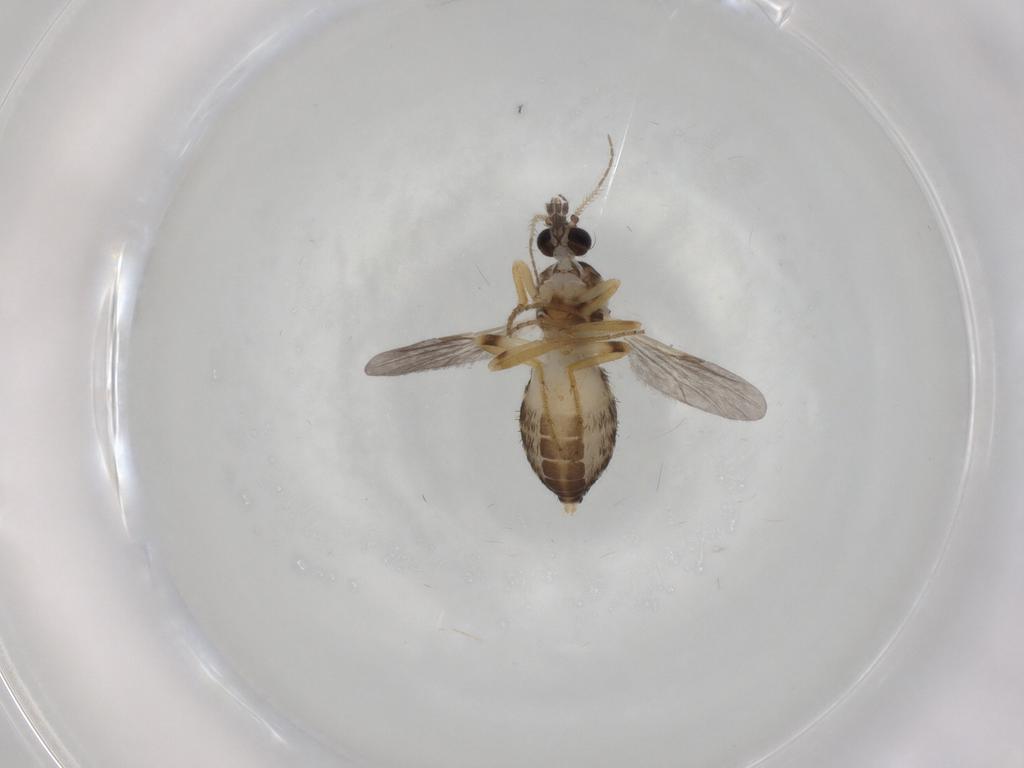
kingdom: Animalia
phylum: Arthropoda
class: Insecta
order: Diptera
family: Ceratopogonidae
